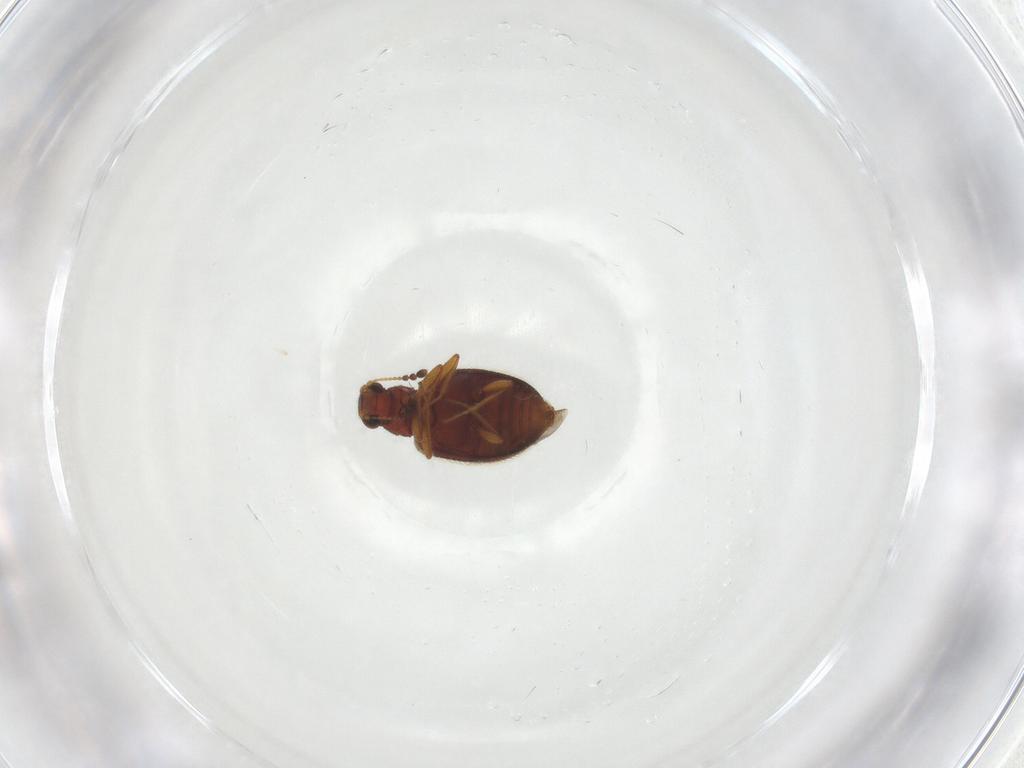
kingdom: Animalia
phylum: Arthropoda
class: Insecta
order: Coleoptera
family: Latridiidae
